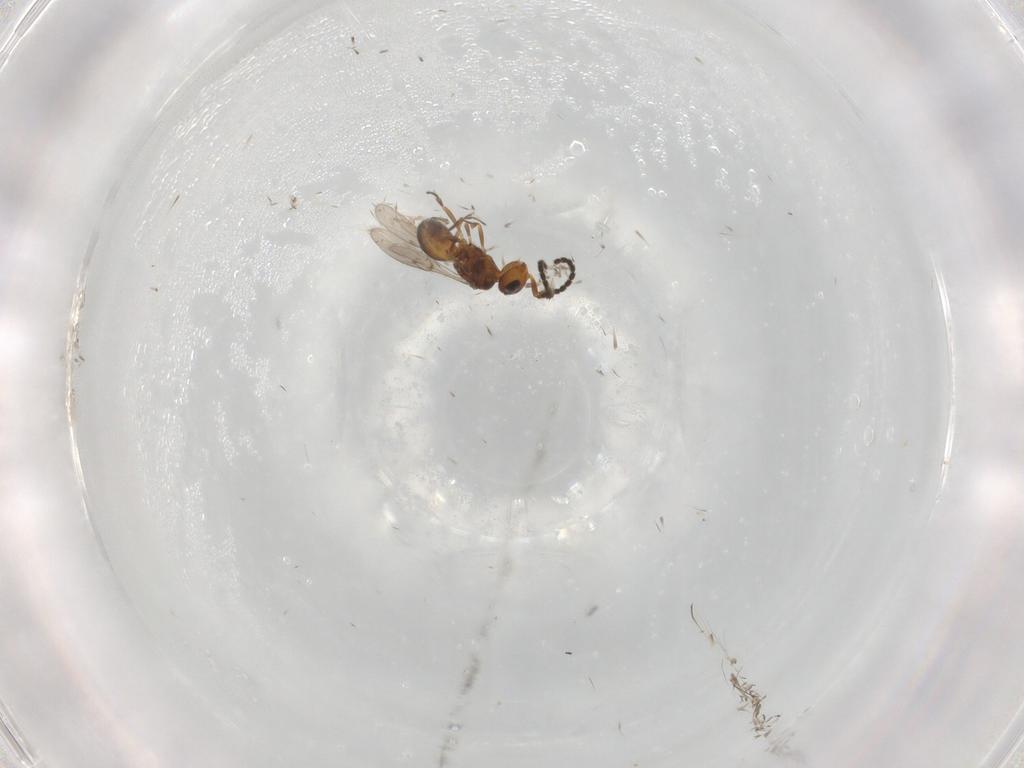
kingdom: Animalia
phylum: Arthropoda
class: Insecta
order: Hymenoptera
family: Scelionidae
